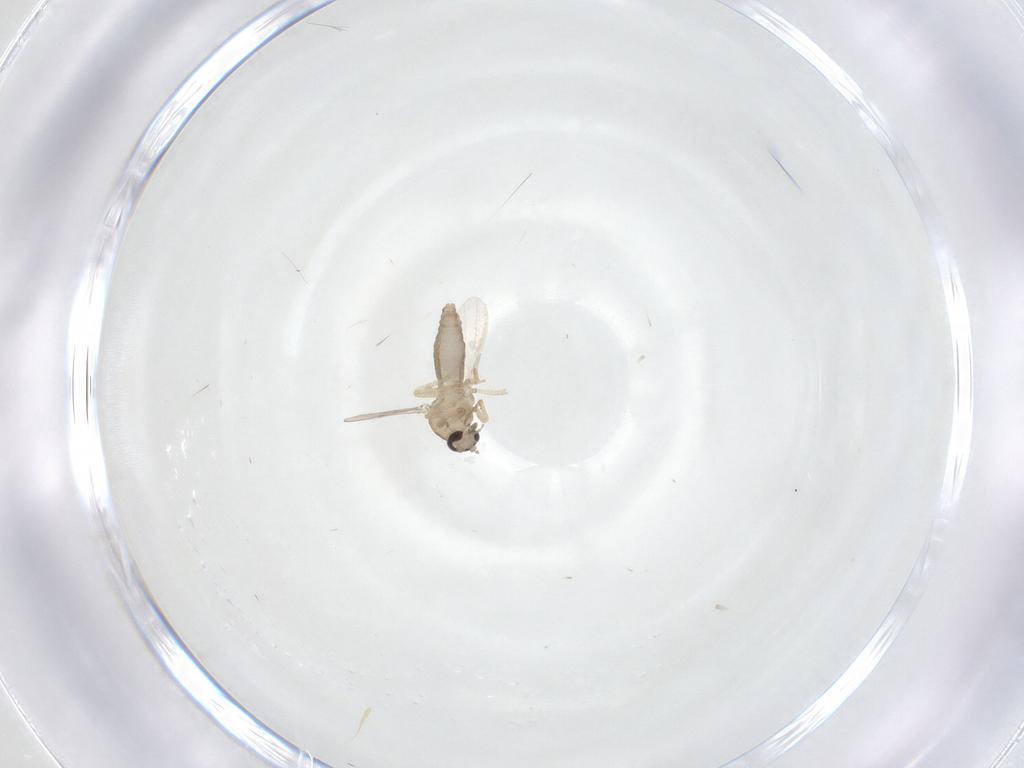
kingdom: Animalia
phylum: Arthropoda
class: Insecta
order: Diptera
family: Ceratopogonidae
